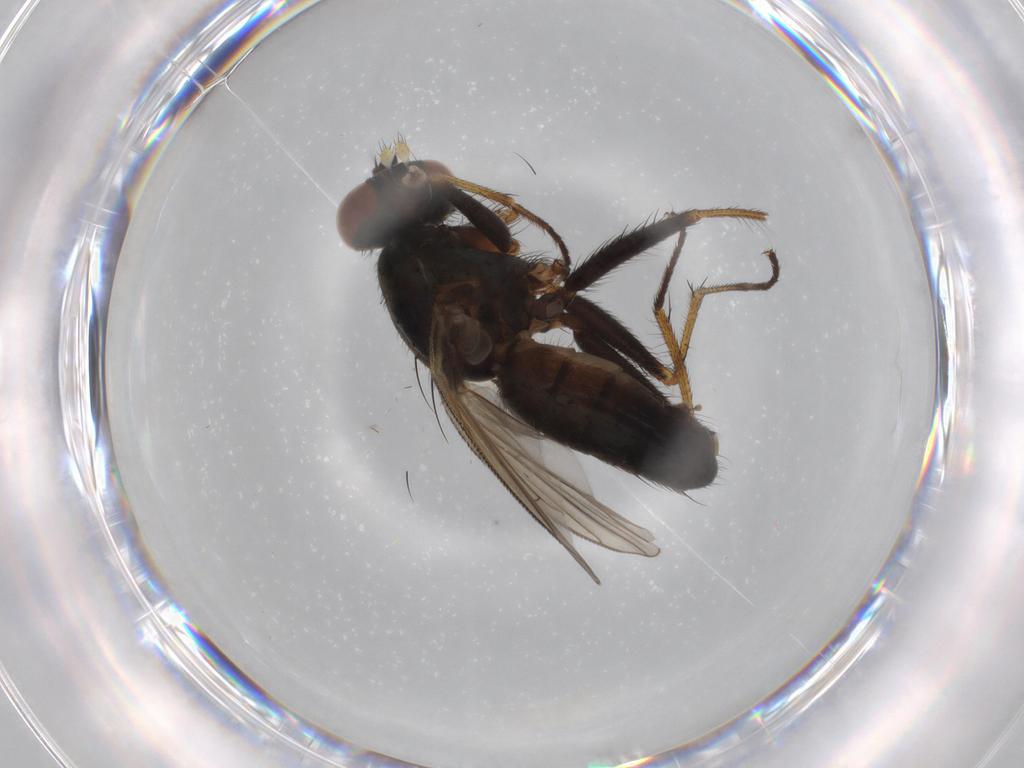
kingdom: Animalia
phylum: Arthropoda
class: Insecta
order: Diptera
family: Muscidae
